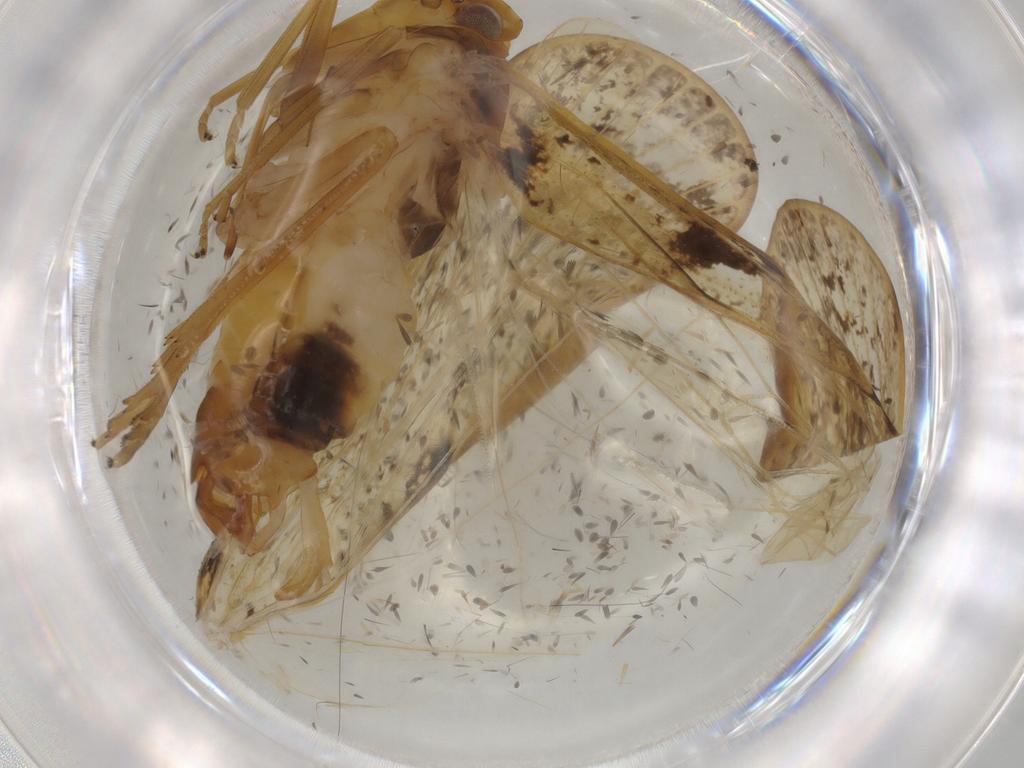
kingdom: Animalia
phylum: Arthropoda
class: Insecta
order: Hemiptera
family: Cixiidae
